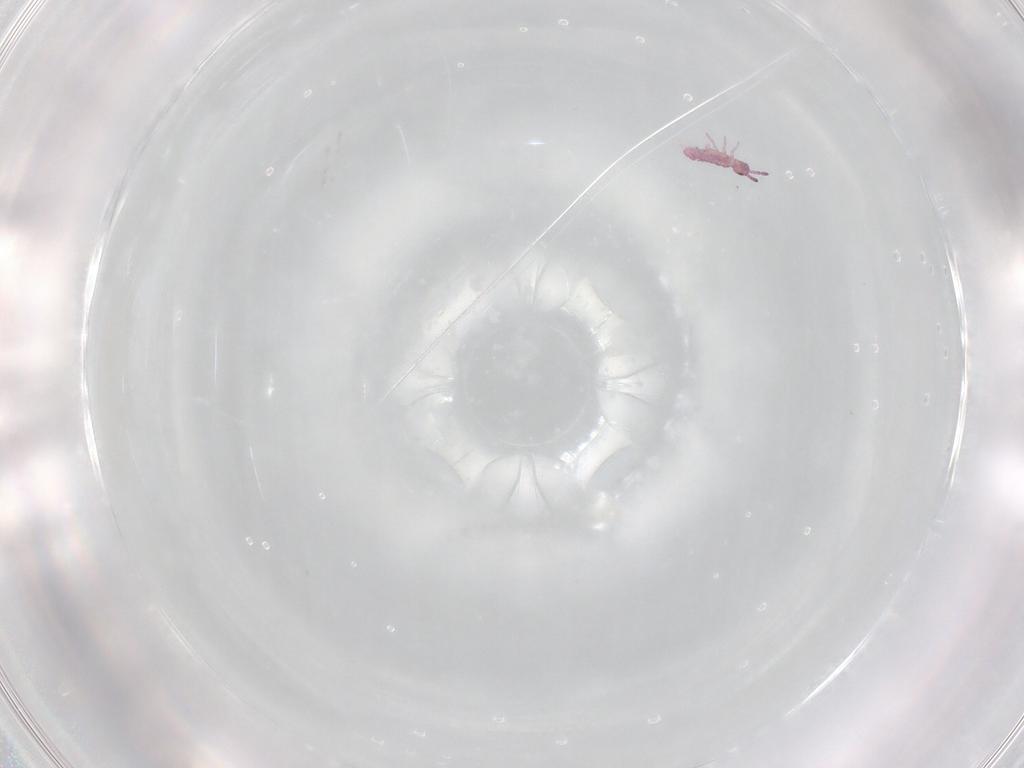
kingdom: Animalia
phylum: Arthropoda
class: Collembola
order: Entomobryomorpha
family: Isotomidae
